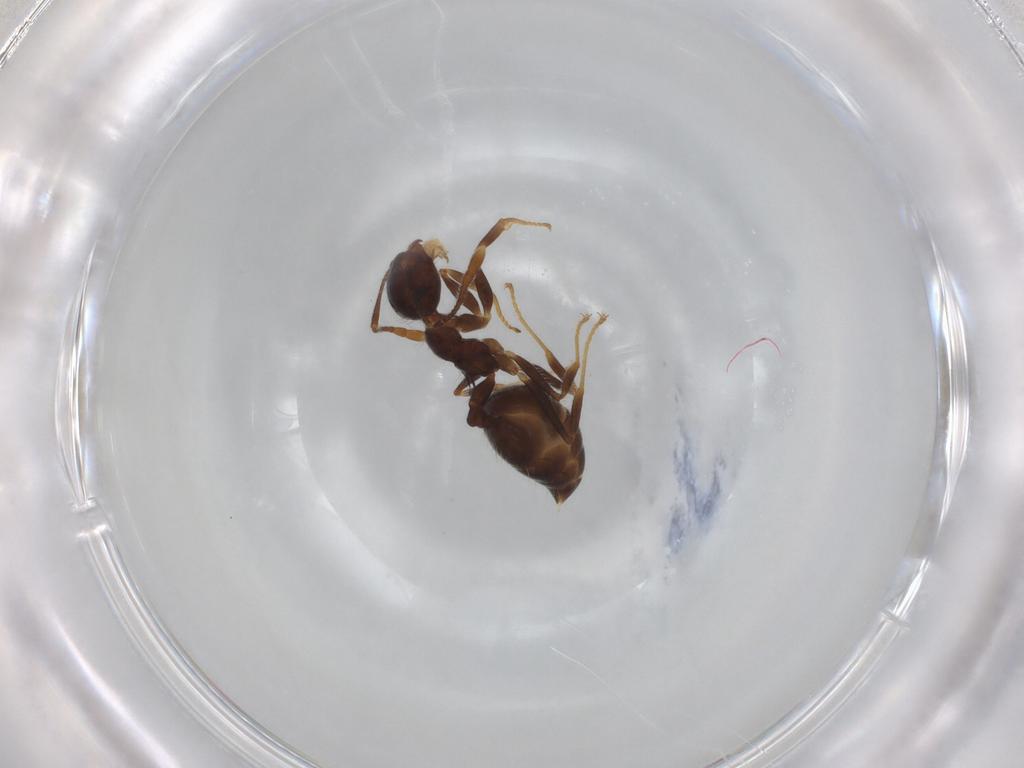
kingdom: Animalia
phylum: Arthropoda
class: Insecta
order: Hymenoptera
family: Formicidae
